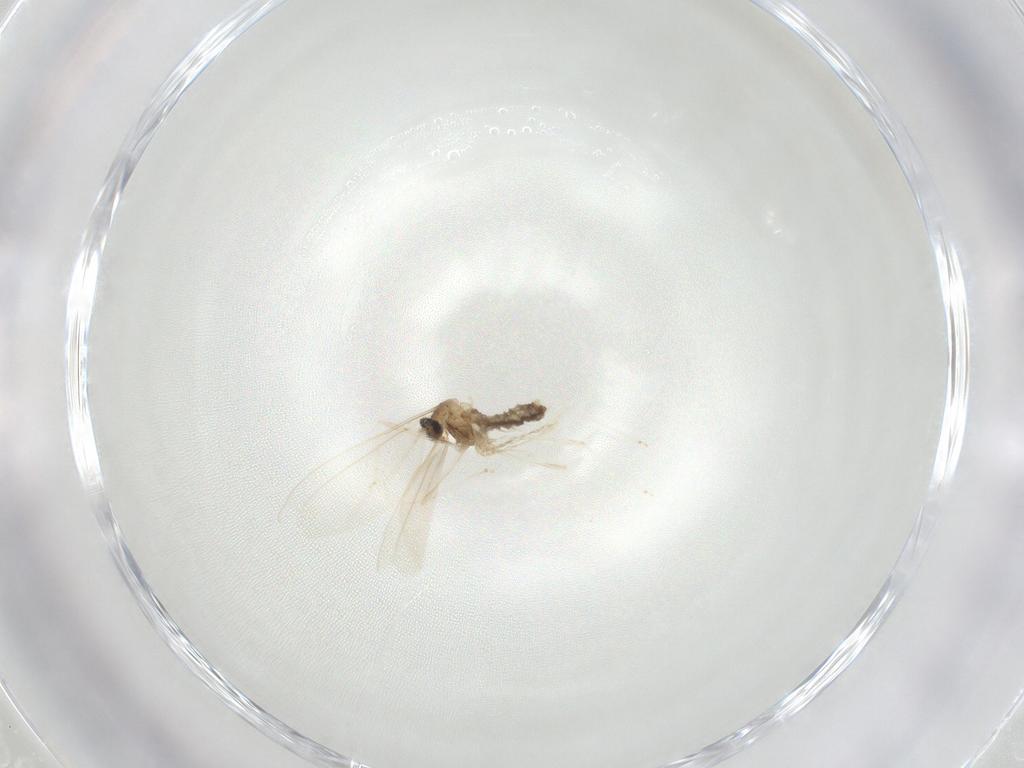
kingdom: Animalia
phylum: Arthropoda
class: Insecta
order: Diptera
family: Cecidomyiidae
